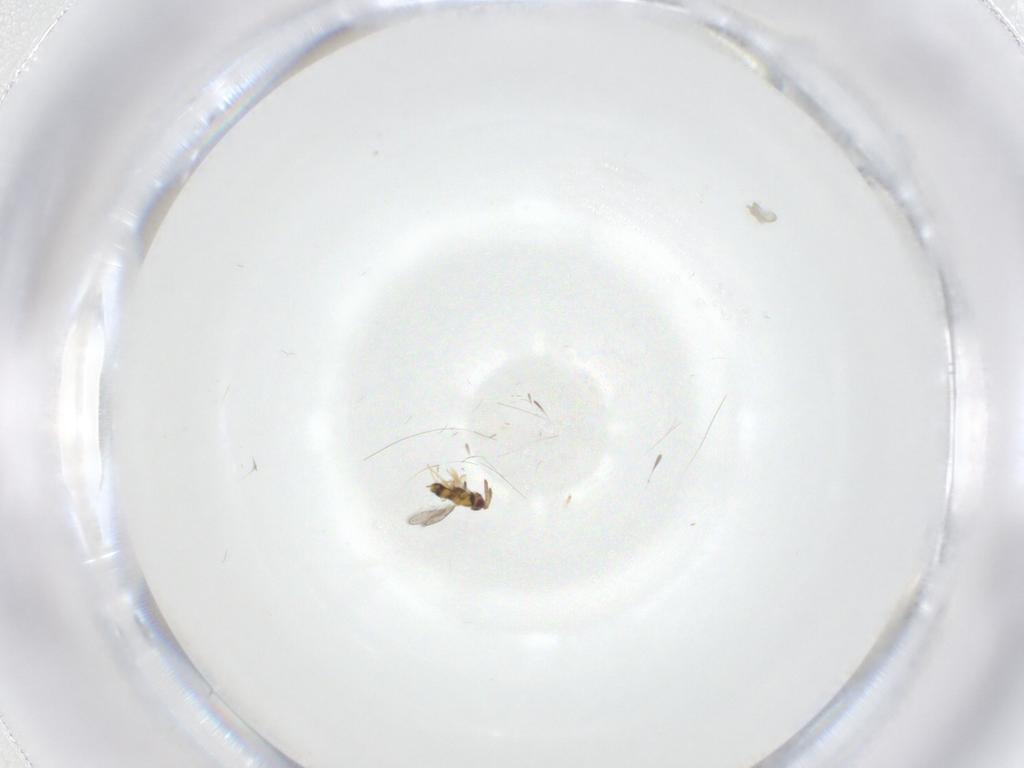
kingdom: Animalia
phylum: Arthropoda
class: Insecta
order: Hymenoptera
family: Aphelinidae
